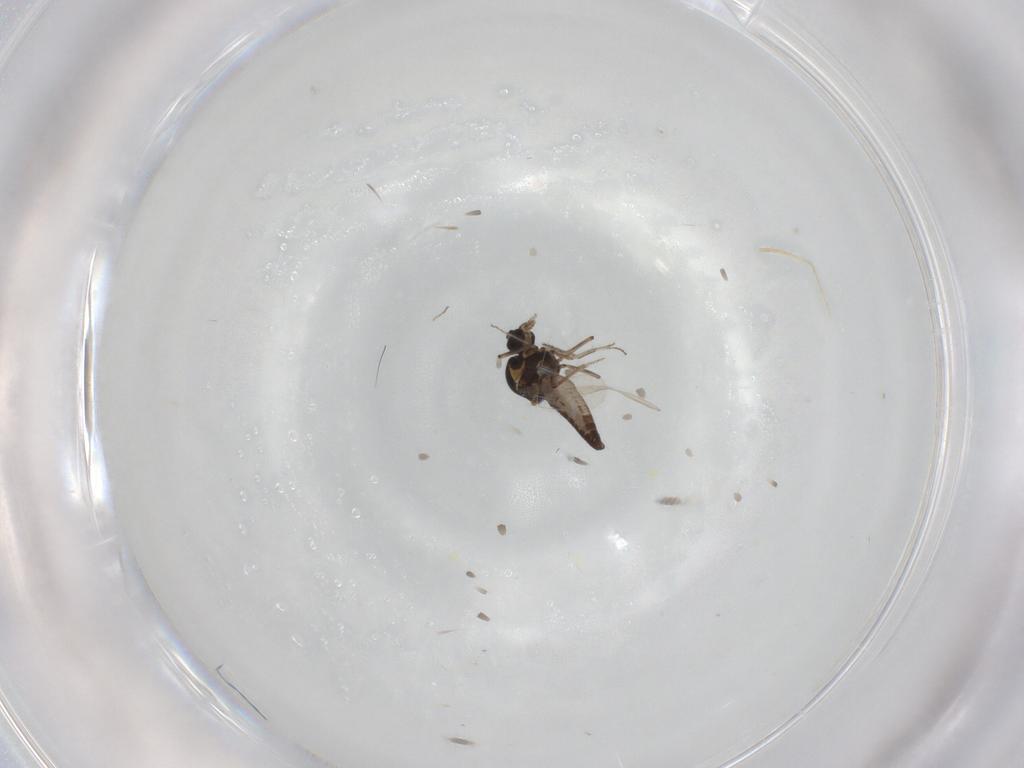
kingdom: Animalia
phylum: Arthropoda
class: Insecta
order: Diptera
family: Ceratopogonidae
